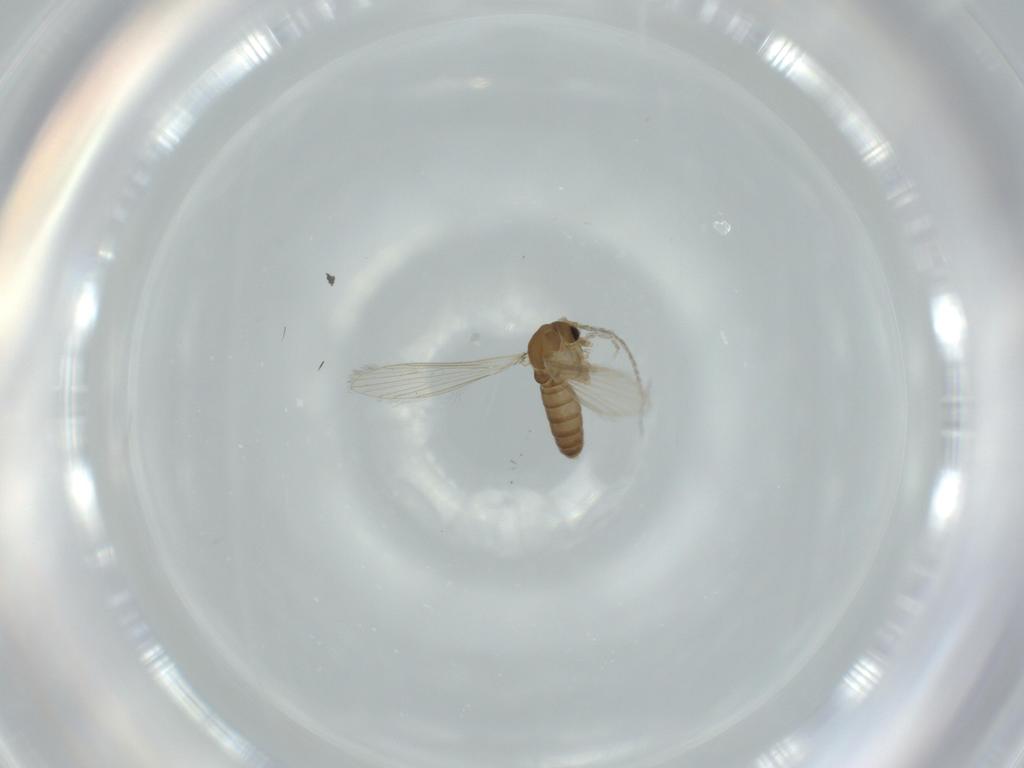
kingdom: Animalia
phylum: Arthropoda
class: Insecta
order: Diptera
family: Psychodidae
